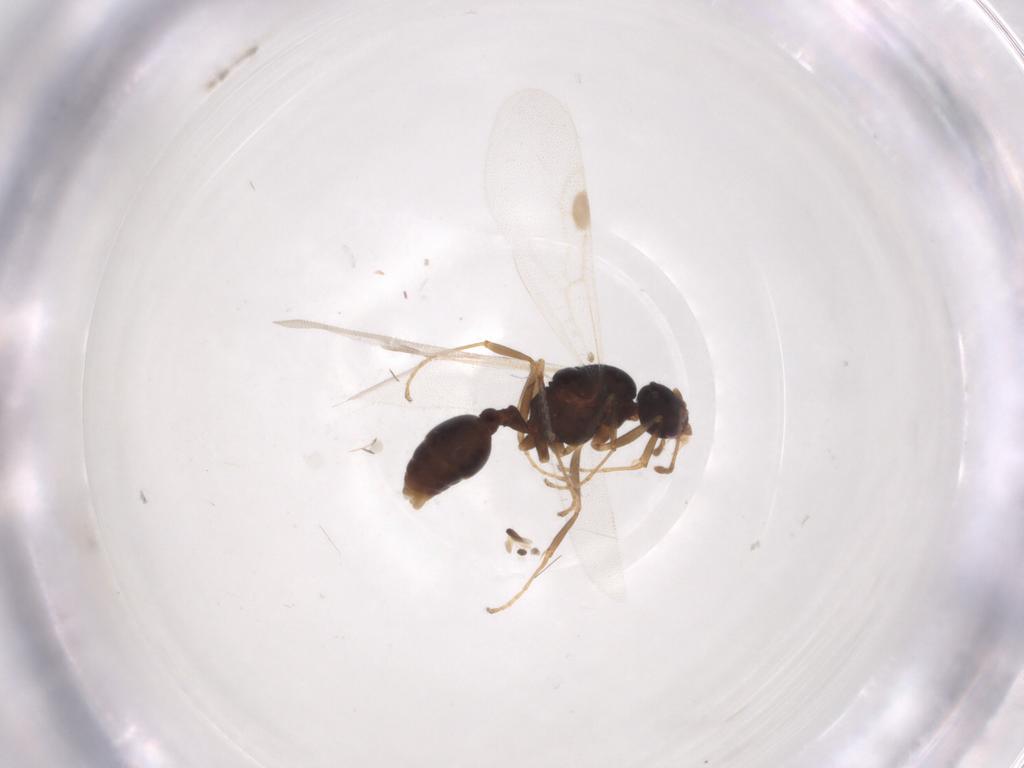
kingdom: Animalia
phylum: Arthropoda
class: Insecta
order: Hymenoptera
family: Formicidae
